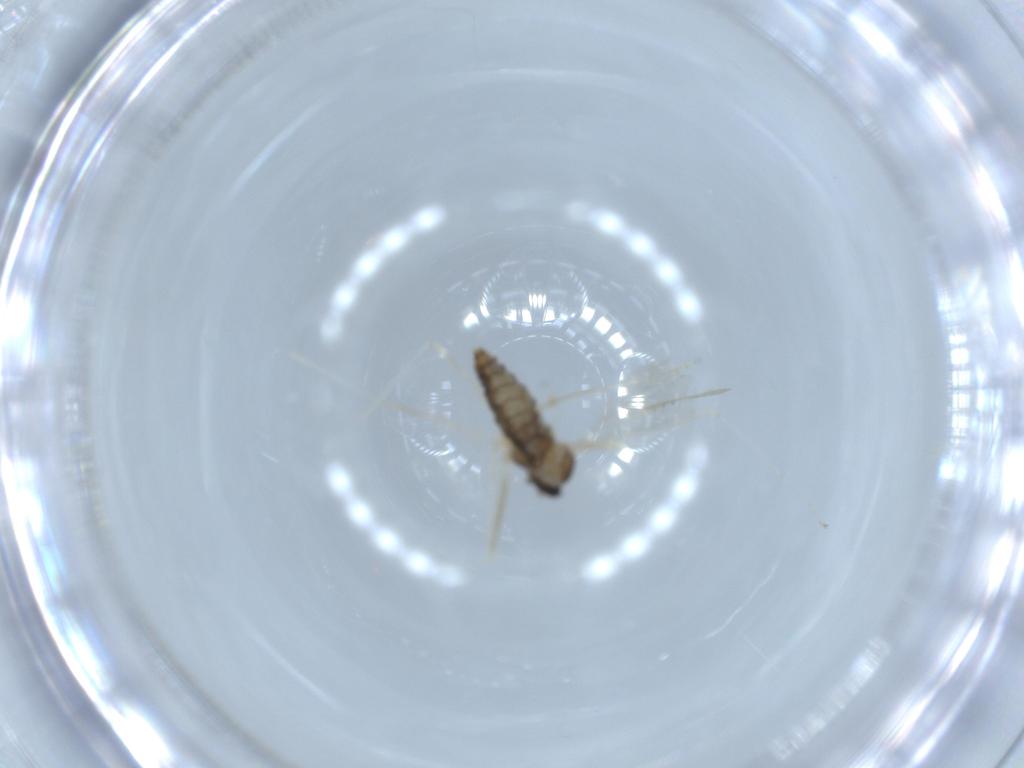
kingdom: Animalia
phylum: Arthropoda
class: Insecta
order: Diptera
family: Cecidomyiidae
